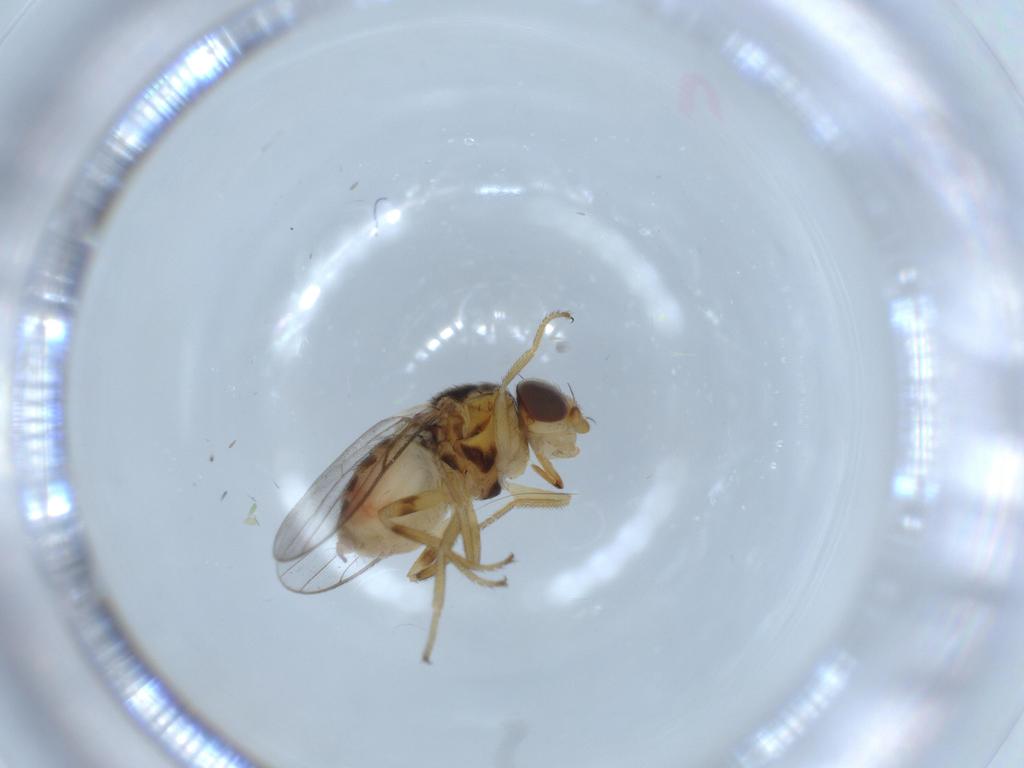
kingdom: Animalia
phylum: Arthropoda
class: Insecta
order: Diptera
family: Chloropidae
